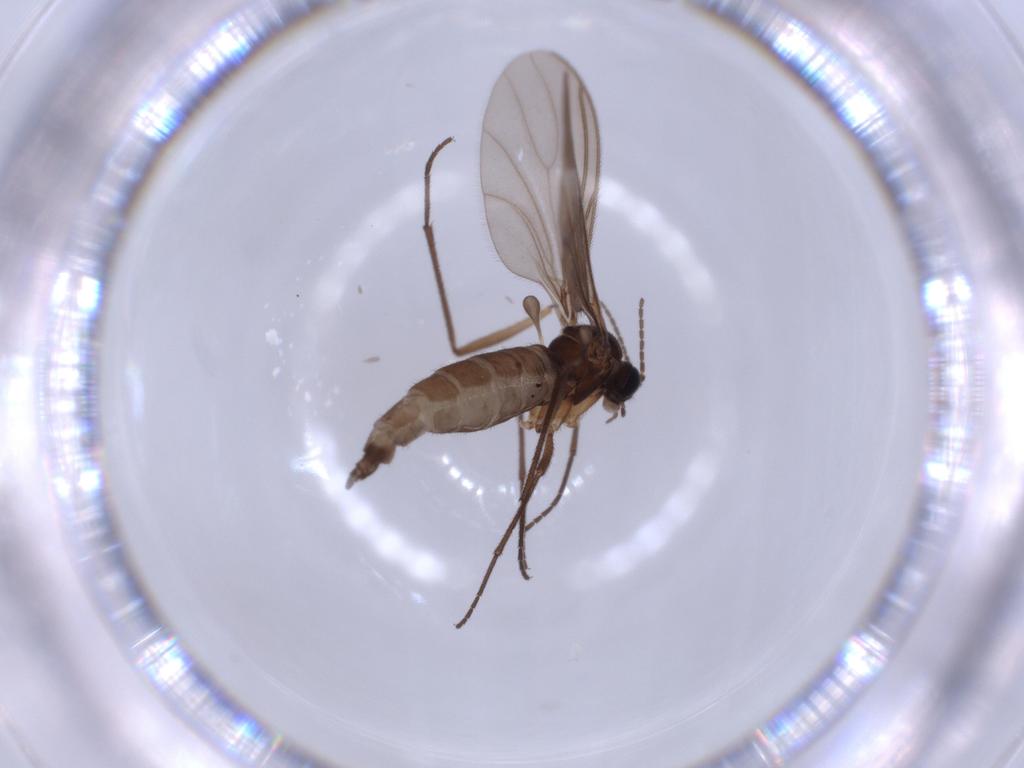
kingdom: Animalia
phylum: Arthropoda
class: Insecta
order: Diptera
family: Sciaridae
